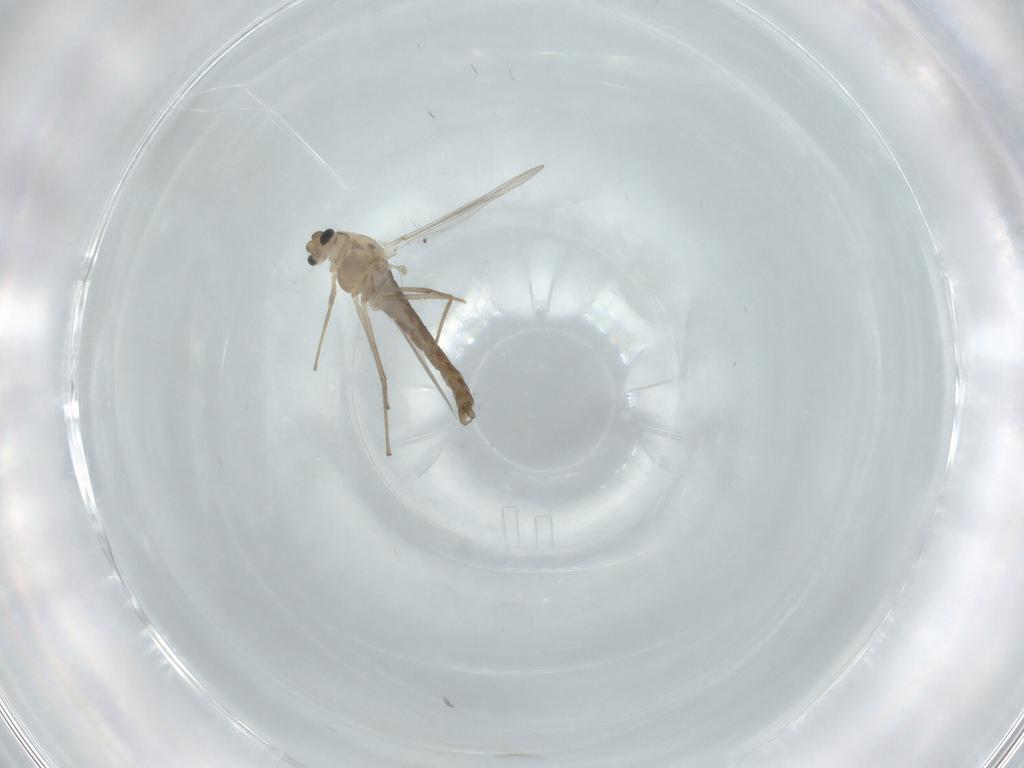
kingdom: Animalia
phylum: Arthropoda
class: Insecta
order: Diptera
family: Chironomidae
